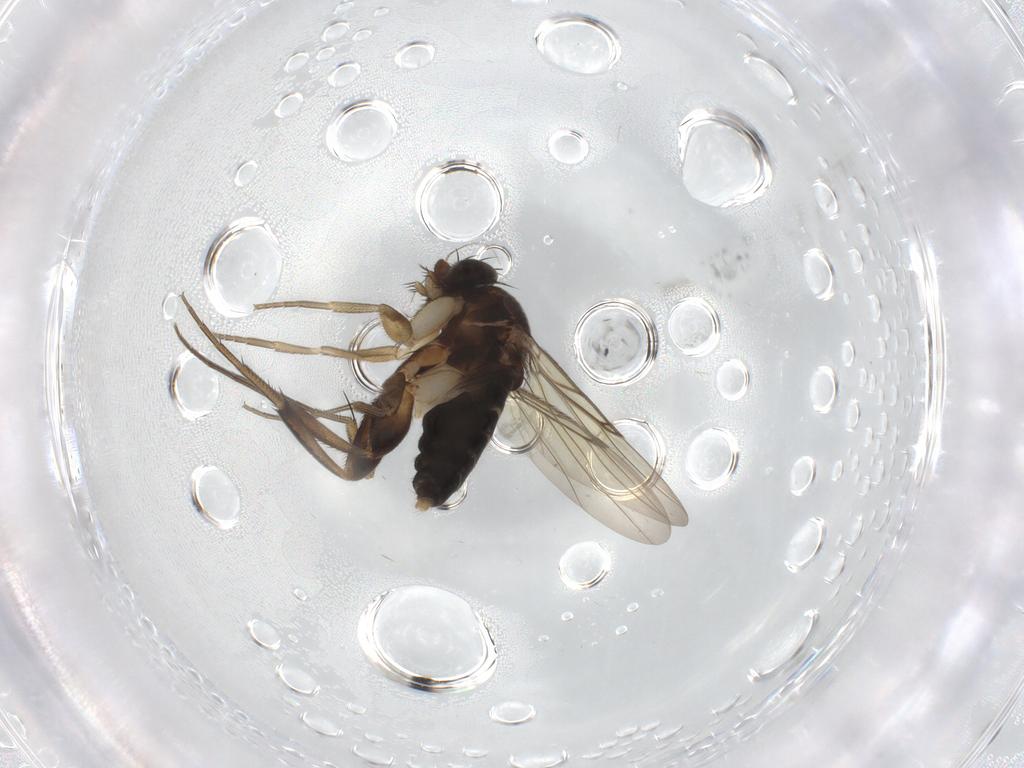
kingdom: Animalia
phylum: Arthropoda
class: Insecta
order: Diptera
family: Phoridae
